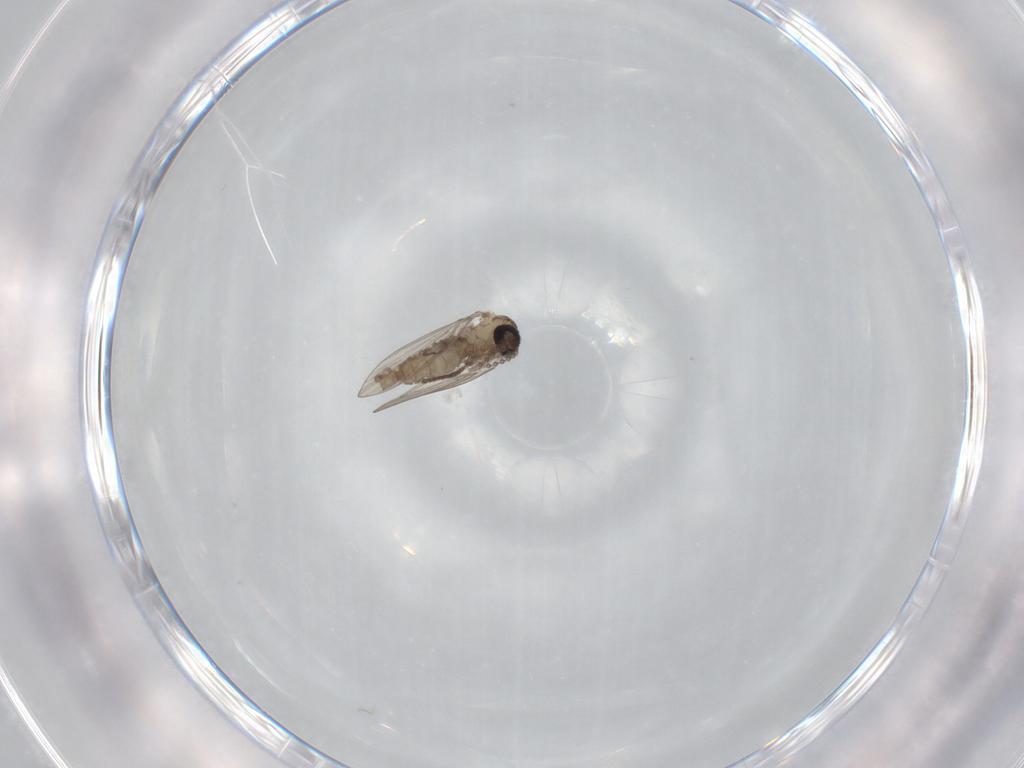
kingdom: Animalia
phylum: Arthropoda
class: Insecta
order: Diptera
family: Psychodidae
